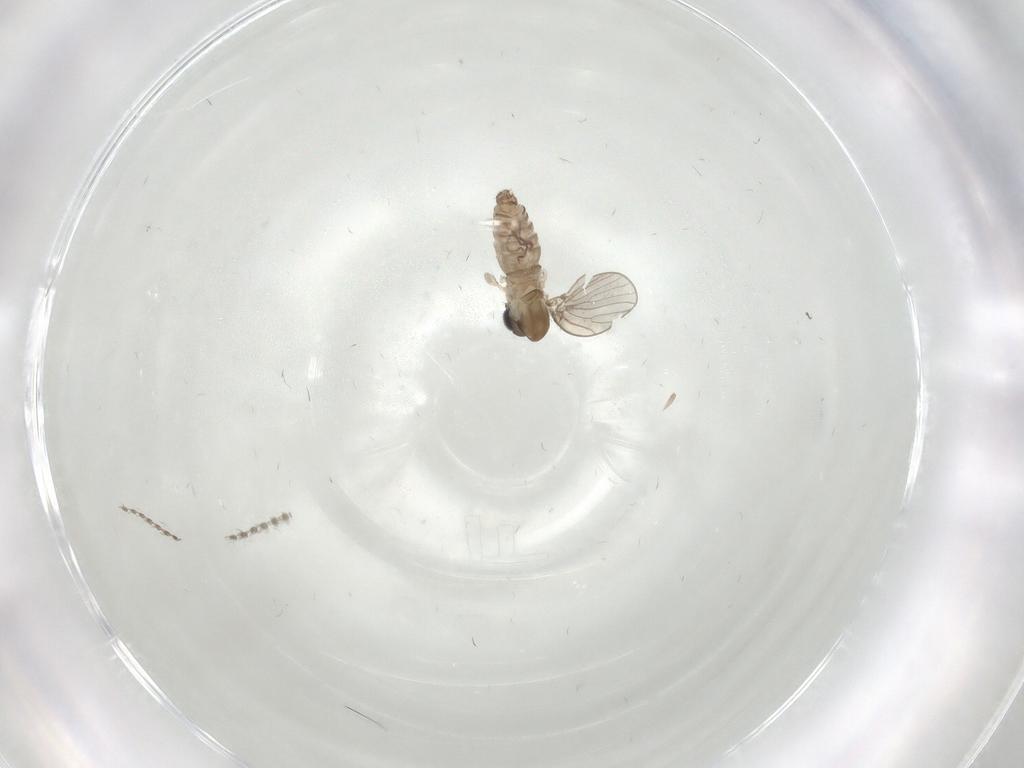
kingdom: Animalia
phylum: Arthropoda
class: Insecta
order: Diptera
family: Psychodidae
